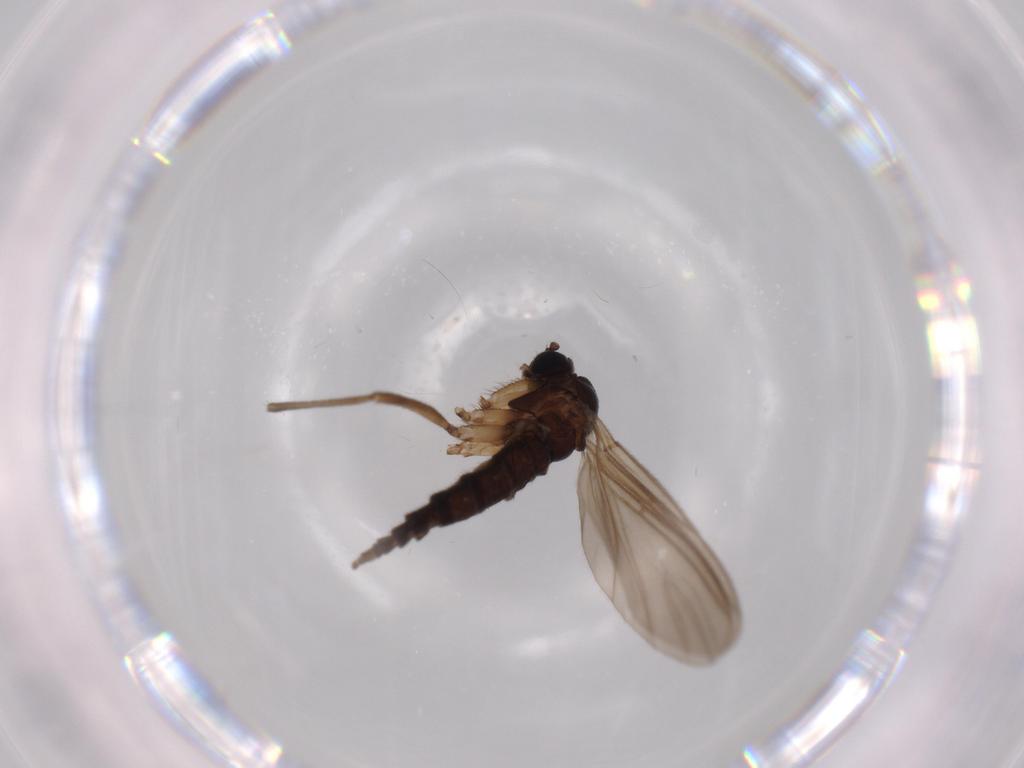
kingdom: Animalia
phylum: Arthropoda
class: Insecta
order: Diptera
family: Sciaridae
